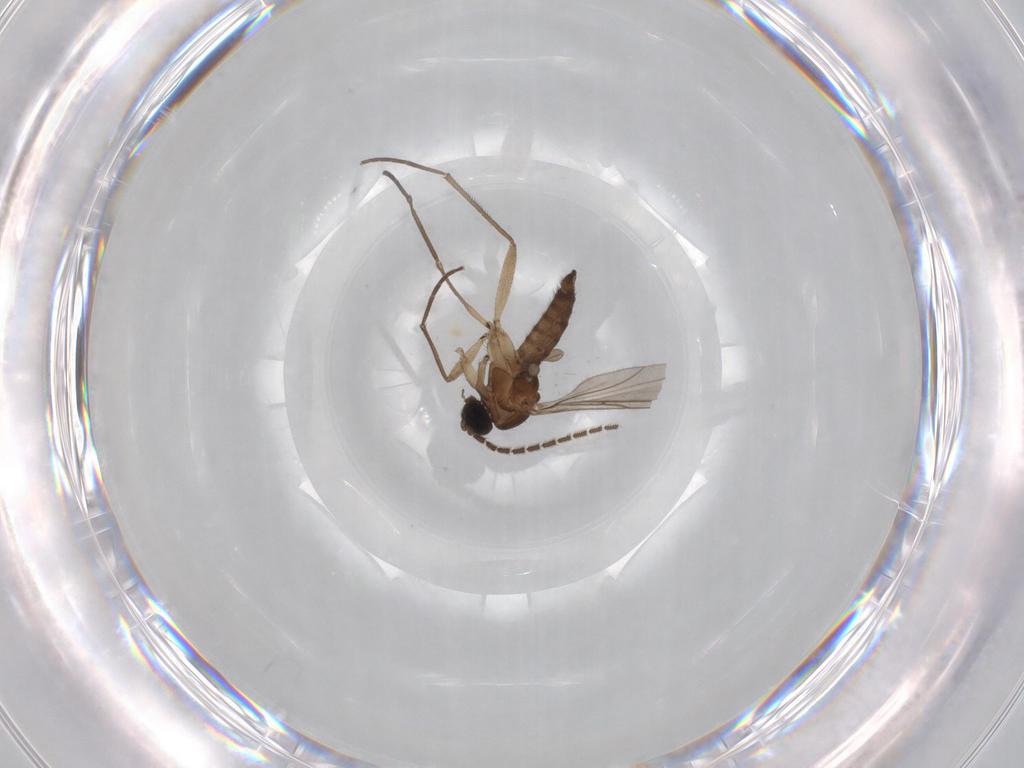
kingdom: Animalia
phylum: Arthropoda
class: Insecta
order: Diptera
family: Sciaridae
